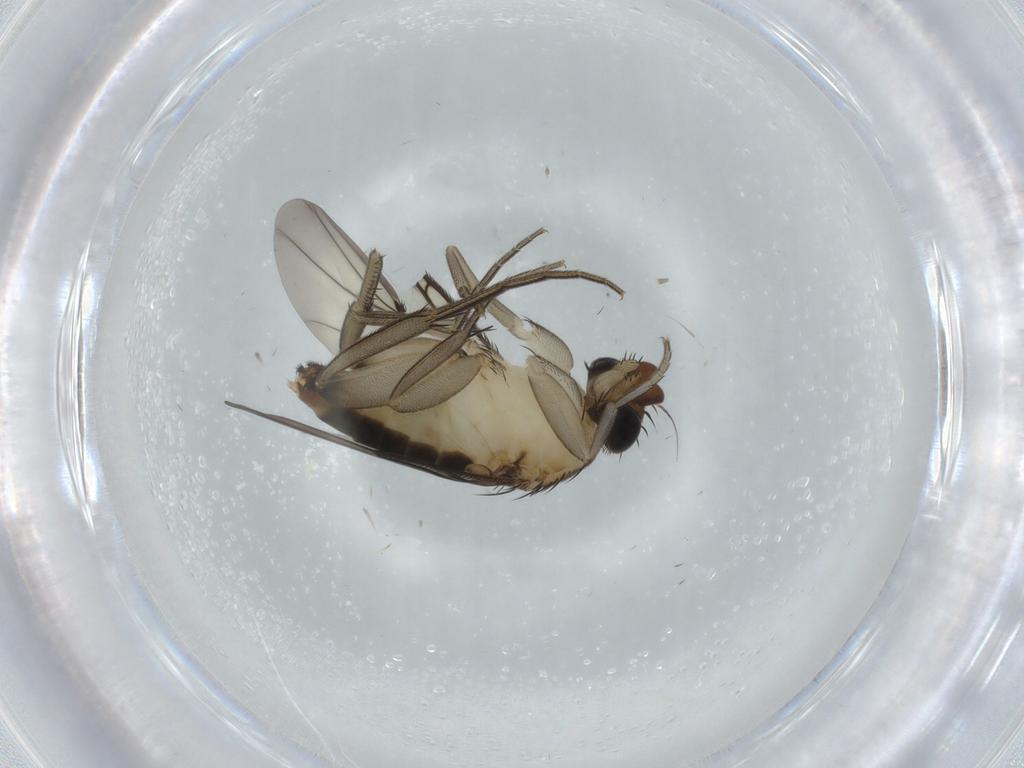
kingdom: Animalia
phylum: Arthropoda
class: Insecta
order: Diptera
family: Phoridae
